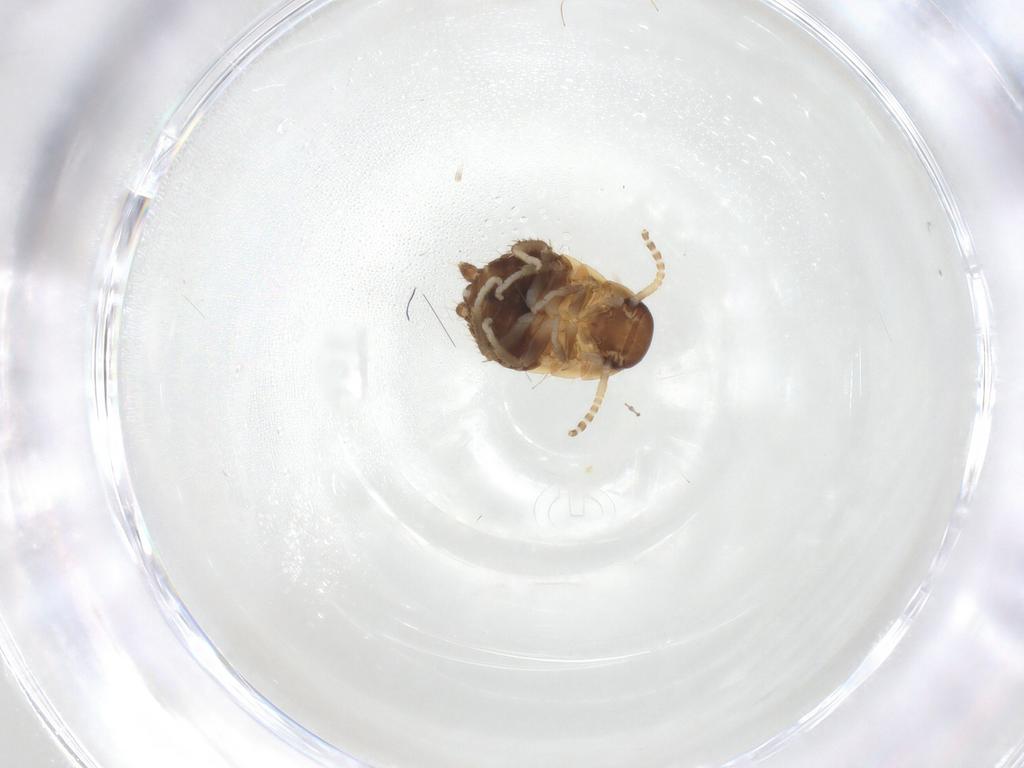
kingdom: Animalia
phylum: Arthropoda
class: Insecta
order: Blattodea
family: Ectobiidae
